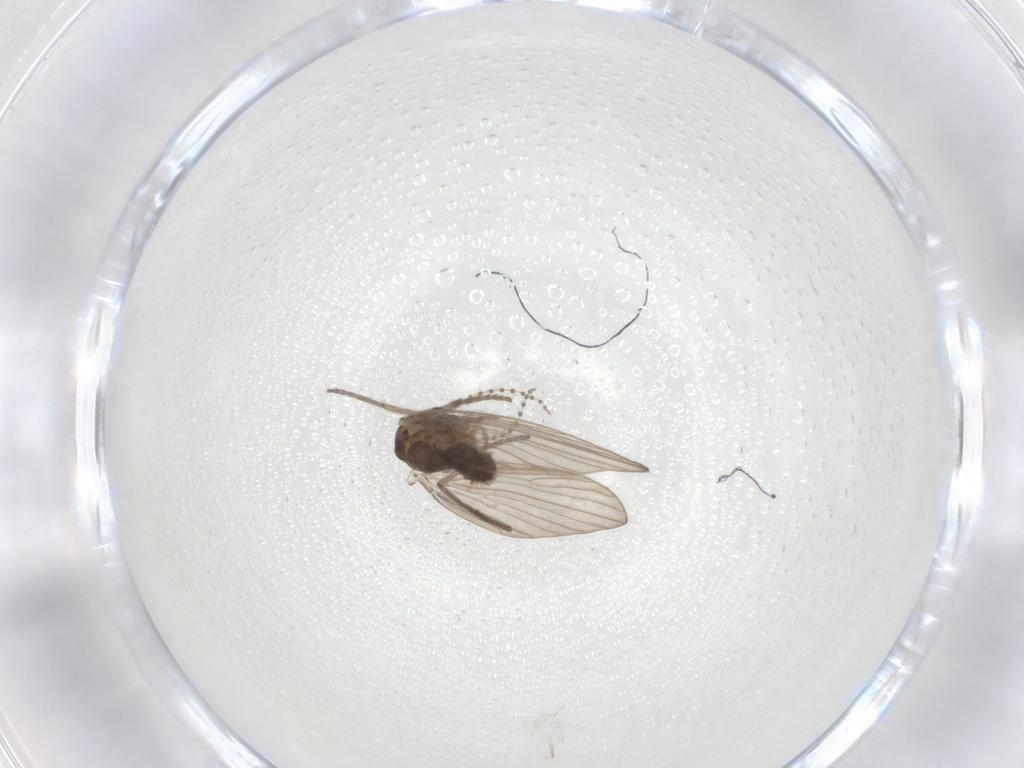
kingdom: Animalia
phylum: Arthropoda
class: Insecta
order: Diptera
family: Psychodidae
